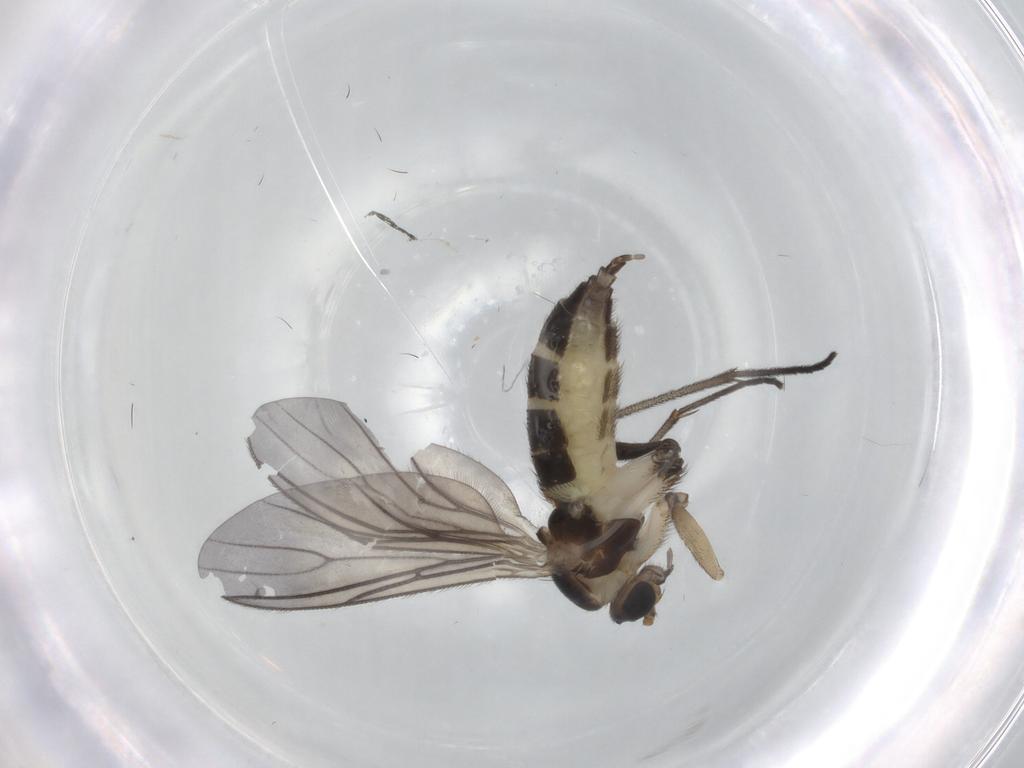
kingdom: Animalia
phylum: Arthropoda
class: Insecta
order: Diptera
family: Sciaridae
